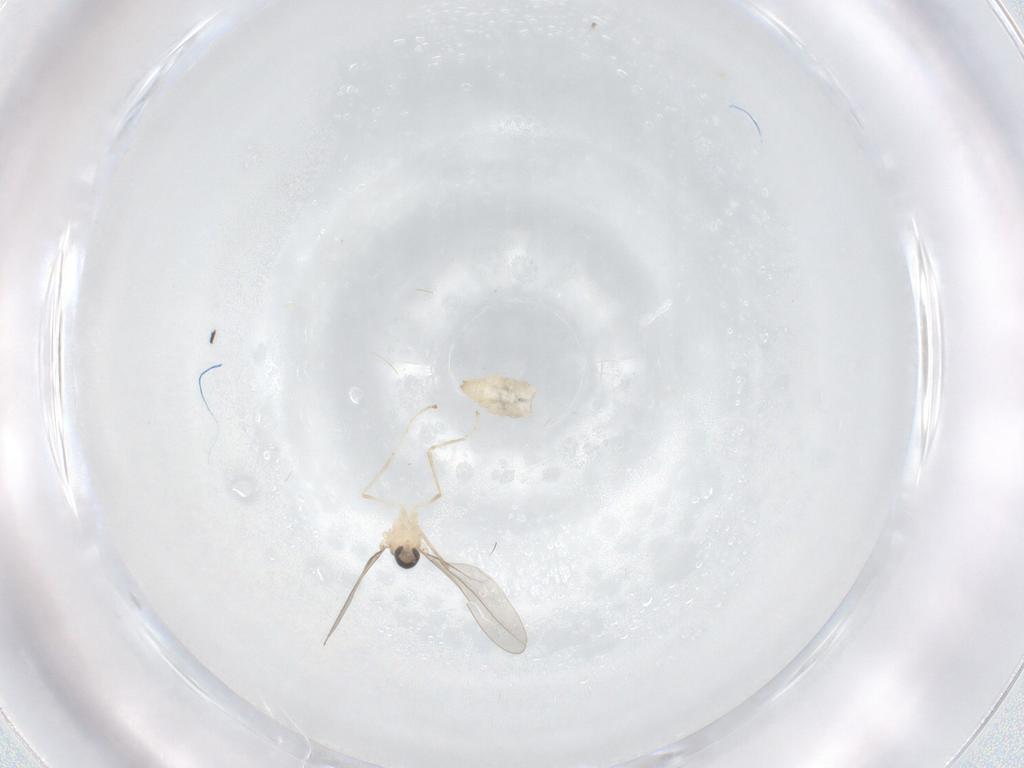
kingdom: Animalia
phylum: Arthropoda
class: Insecta
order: Diptera
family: Cecidomyiidae
